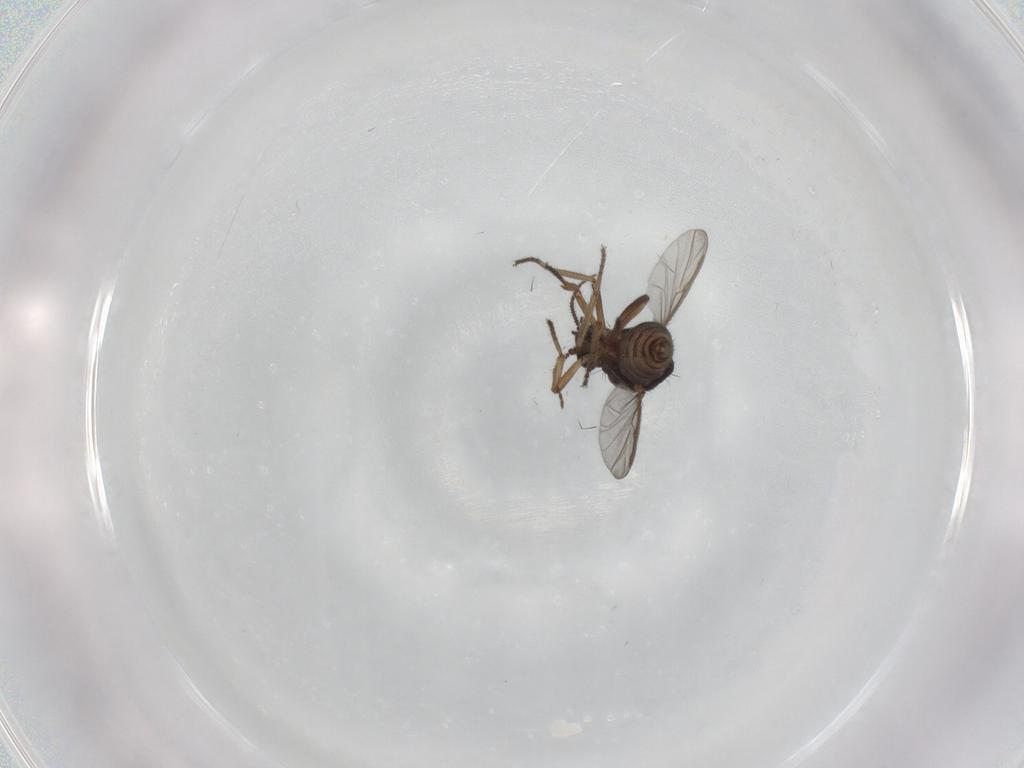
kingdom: Animalia
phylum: Arthropoda
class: Insecta
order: Diptera
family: Ceratopogonidae
